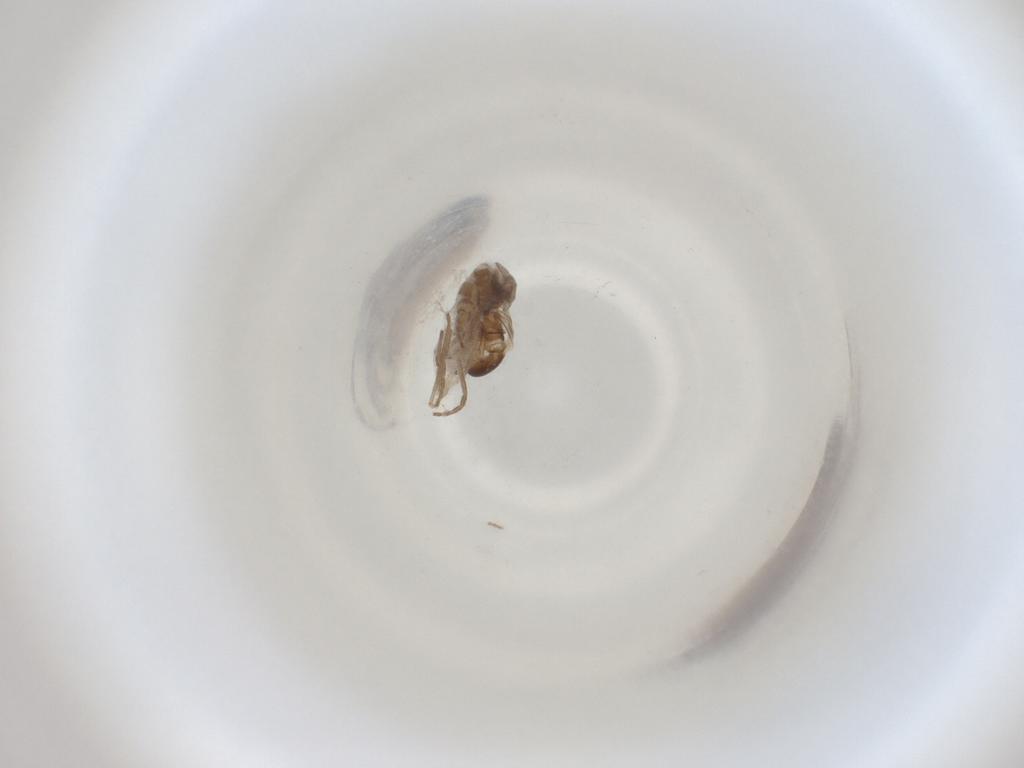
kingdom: Animalia
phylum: Arthropoda
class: Insecta
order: Diptera
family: Cecidomyiidae
